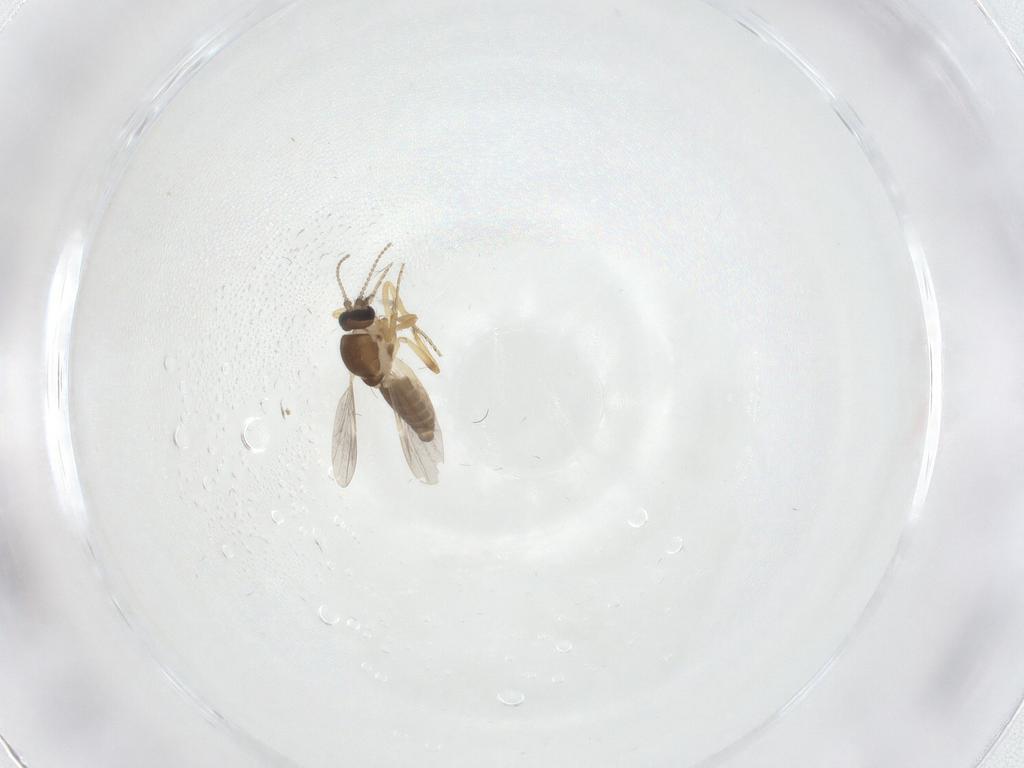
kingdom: Animalia
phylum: Arthropoda
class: Insecta
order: Diptera
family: Ceratopogonidae
